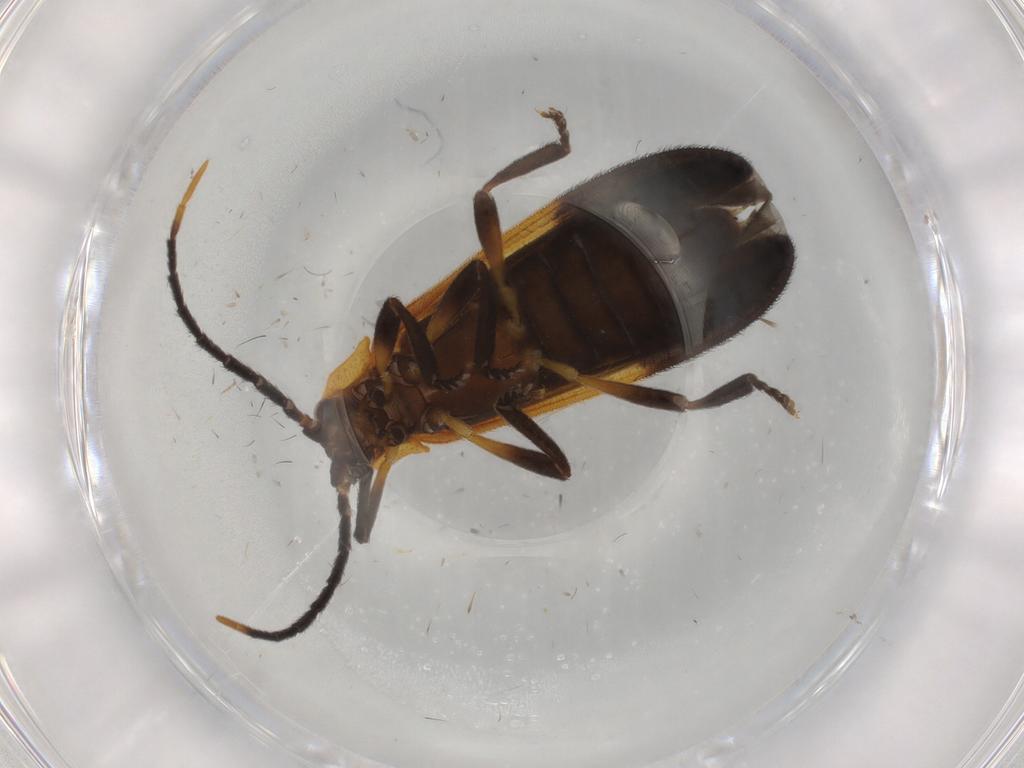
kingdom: Animalia
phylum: Arthropoda
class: Insecta
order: Coleoptera
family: Lycidae
